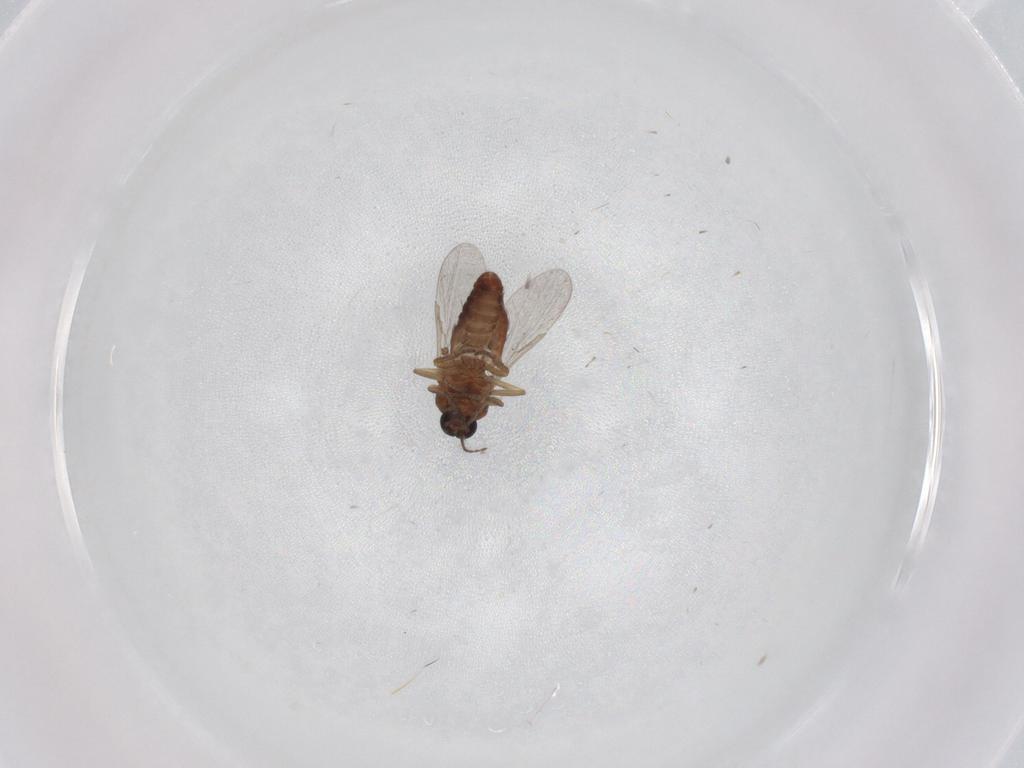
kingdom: Animalia
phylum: Arthropoda
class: Insecta
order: Diptera
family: Ceratopogonidae
